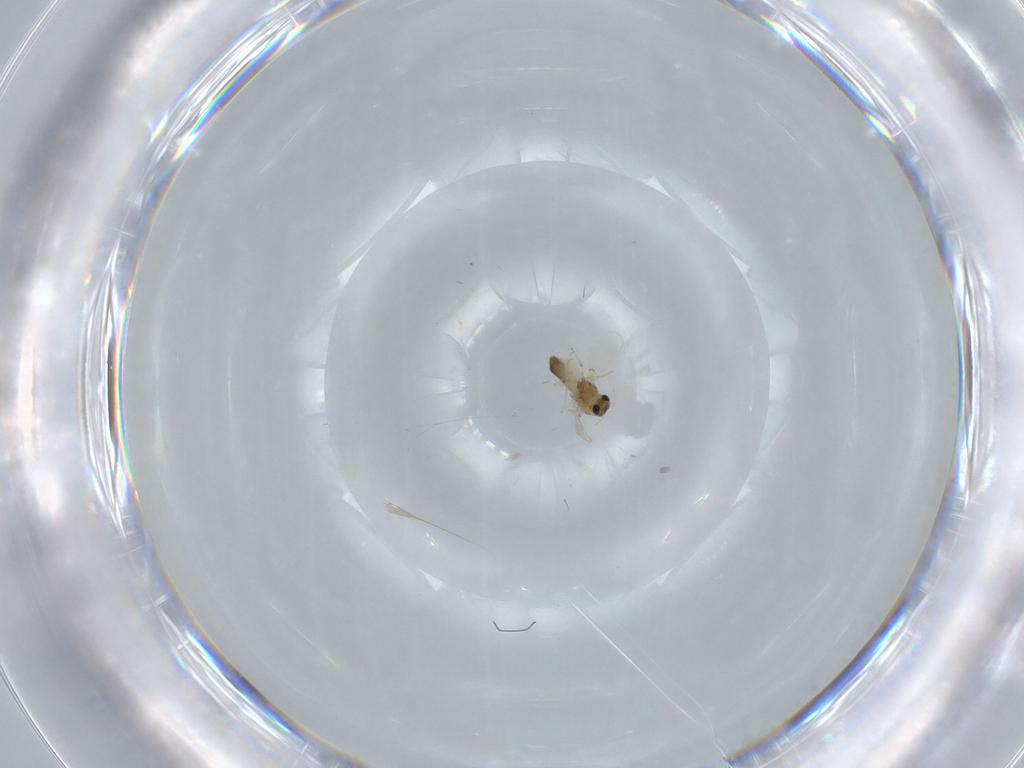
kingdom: Animalia
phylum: Arthropoda
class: Insecta
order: Diptera
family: Chironomidae
